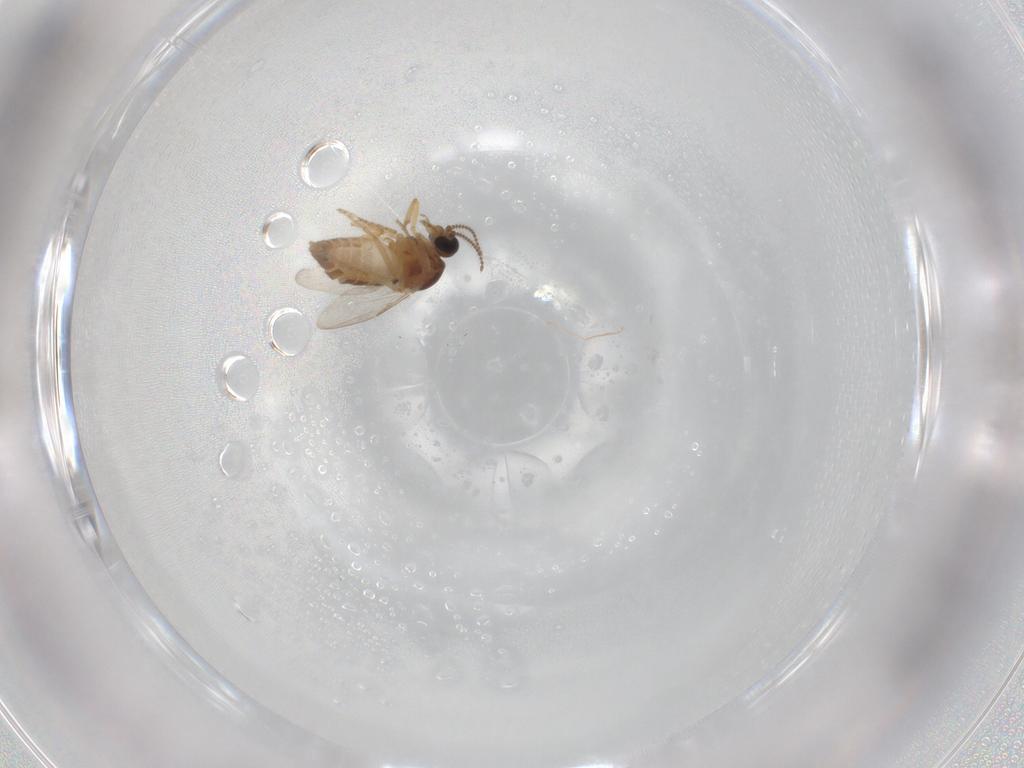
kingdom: Animalia
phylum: Arthropoda
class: Insecta
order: Diptera
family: Ceratopogonidae
